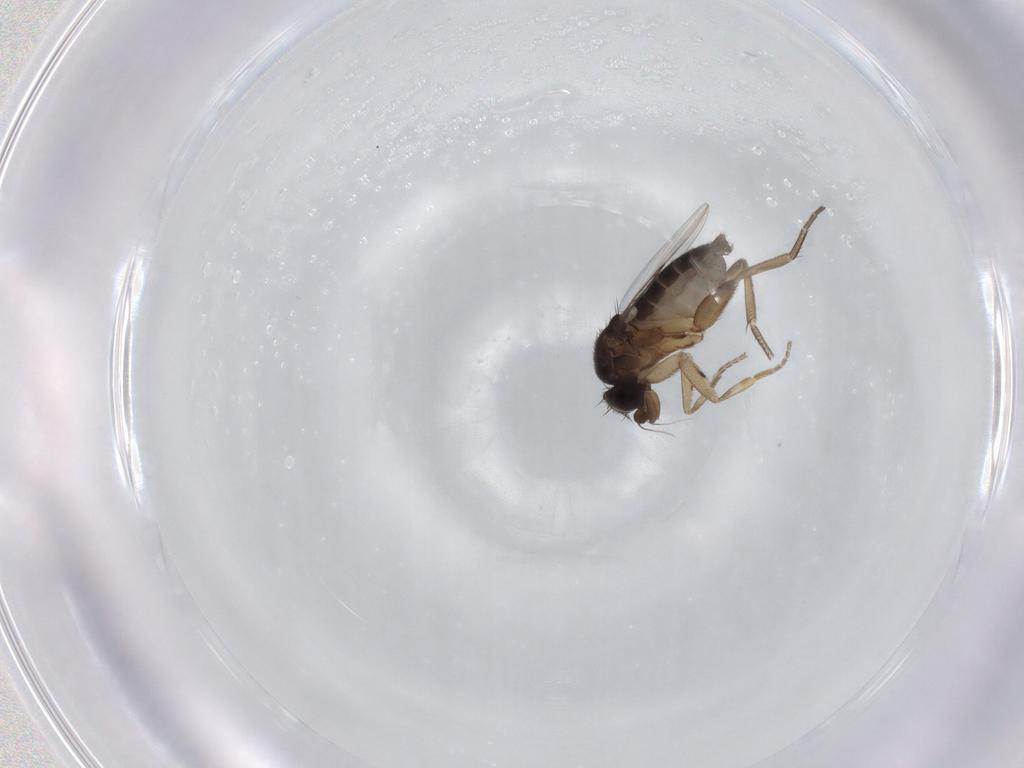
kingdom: Animalia
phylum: Arthropoda
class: Insecta
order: Diptera
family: Phoridae
